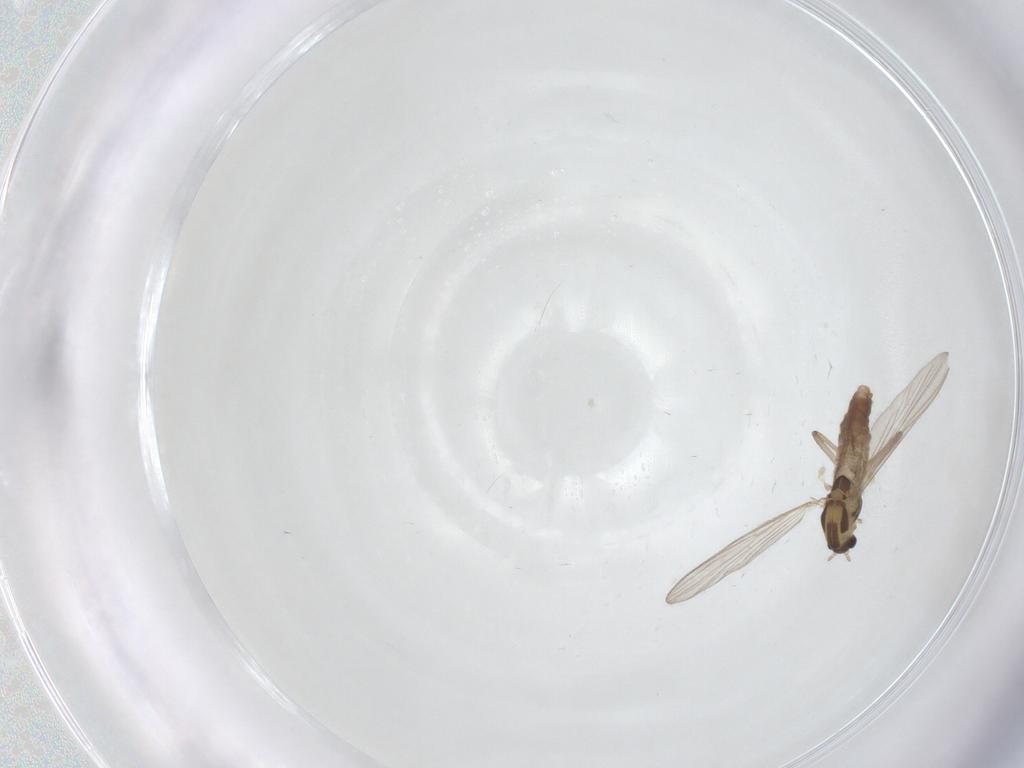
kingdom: Animalia
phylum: Arthropoda
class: Insecta
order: Diptera
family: Chironomidae
